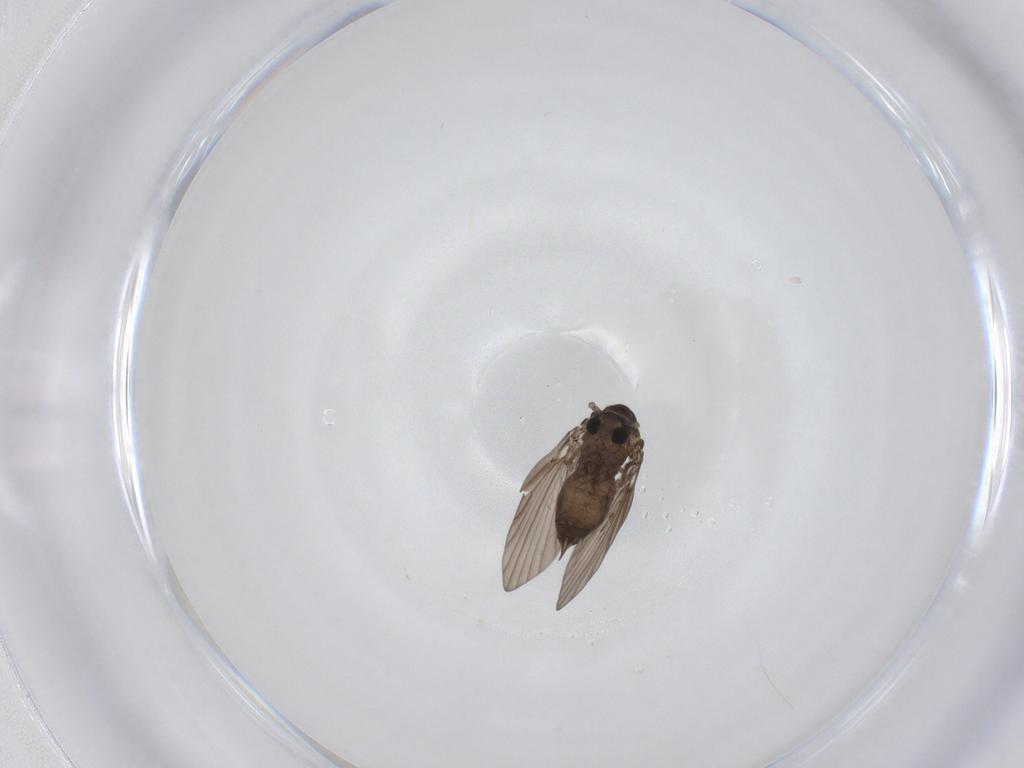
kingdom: Animalia
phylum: Arthropoda
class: Insecta
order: Diptera
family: Psychodidae
